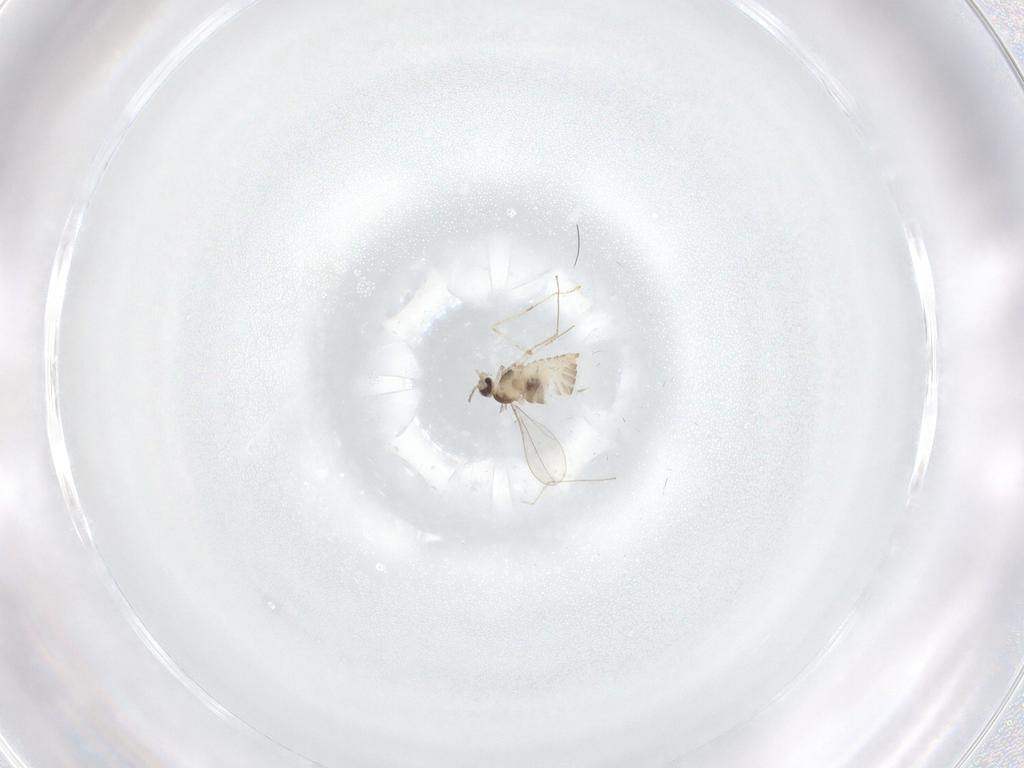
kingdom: Animalia
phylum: Arthropoda
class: Insecta
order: Diptera
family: Cecidomyiidae
